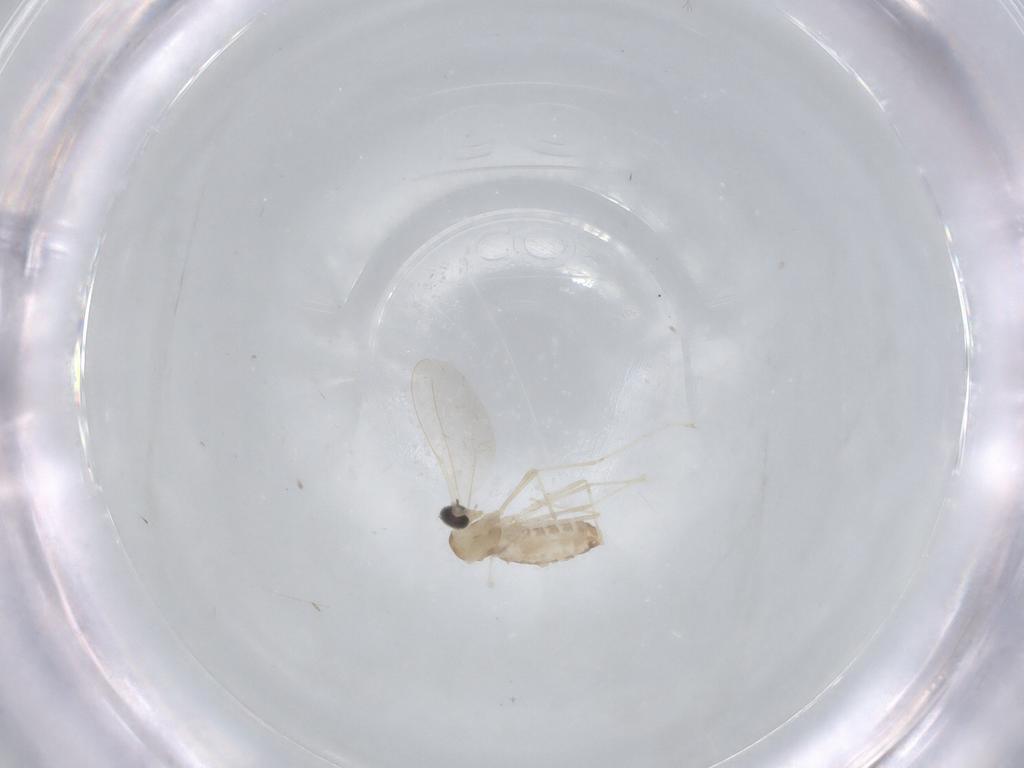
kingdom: Animalia
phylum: Arthropoda
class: Insecta
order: Diptera
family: Cecidomyiidae
